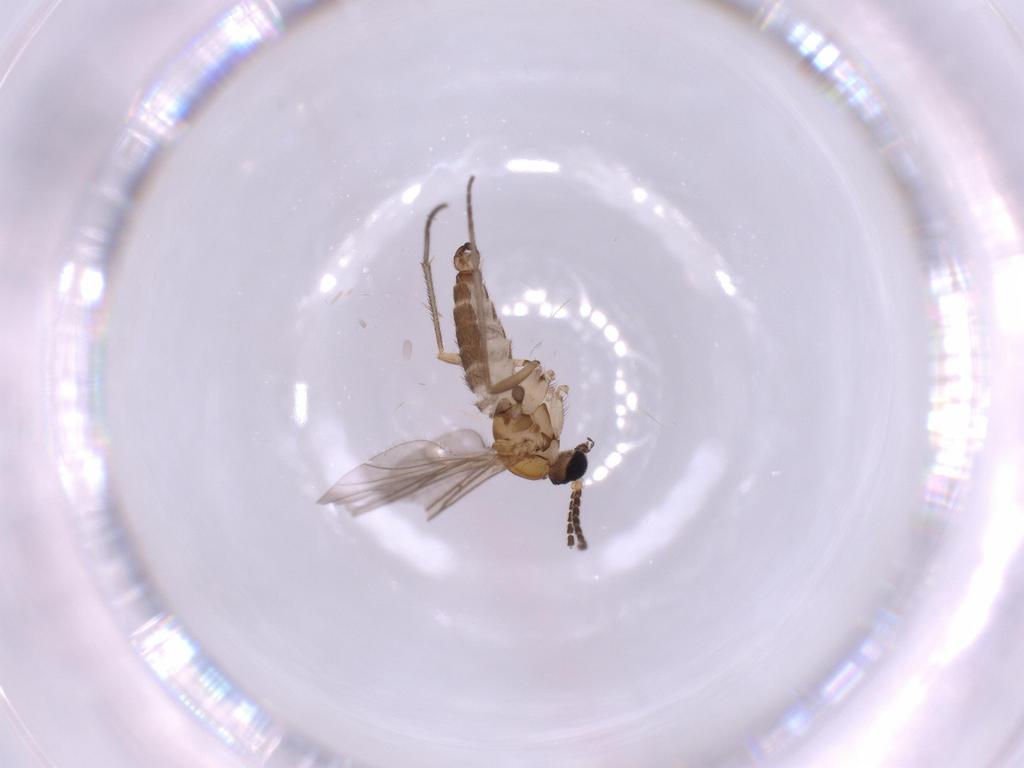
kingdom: Animalia
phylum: Arthropoda
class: Insecta
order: Diptera
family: Sciaridae
